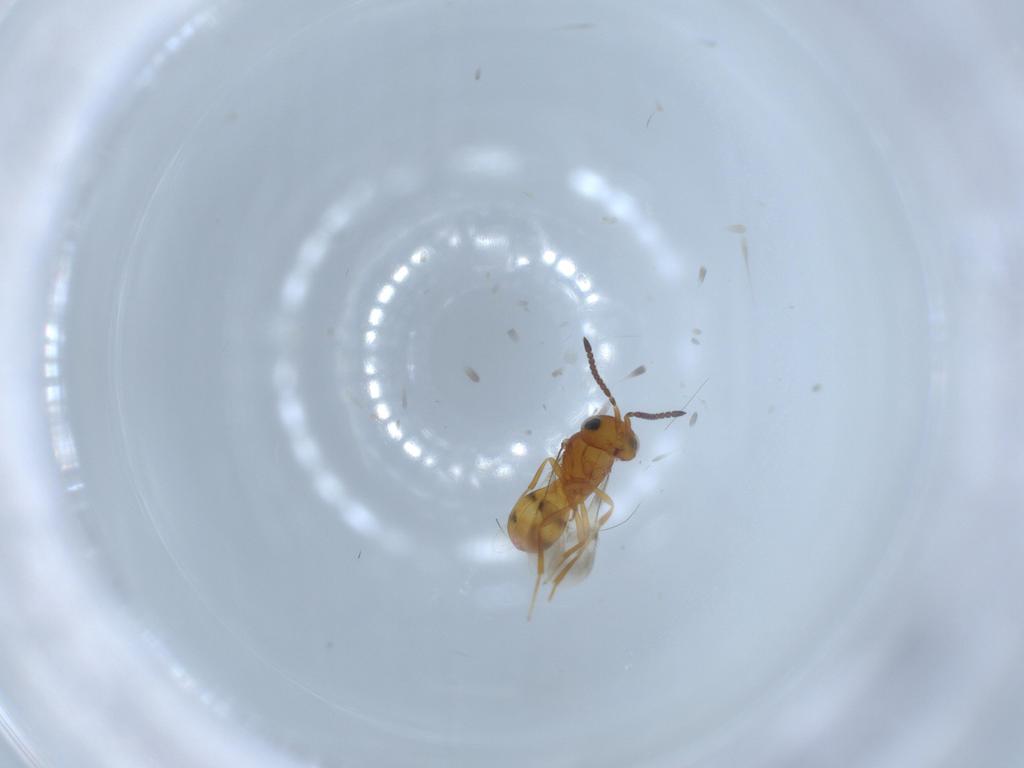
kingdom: Animalia
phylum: Arthropoda
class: Insecta
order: Hymenoptera
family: Scelionidae
